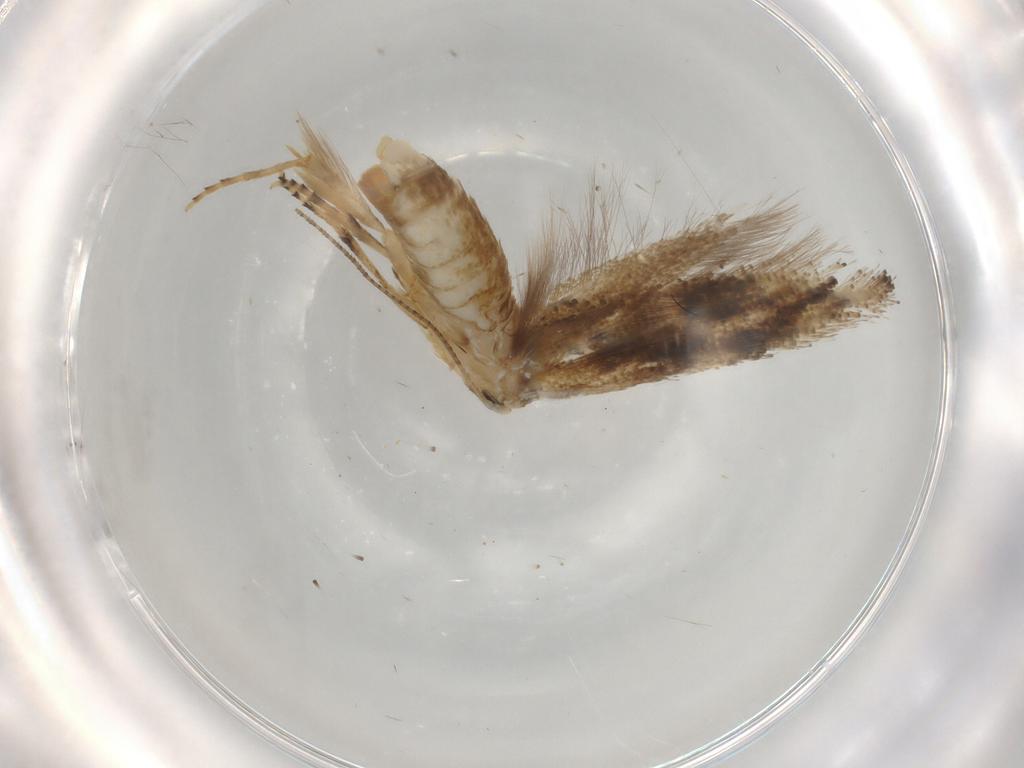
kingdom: Animalia
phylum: Arthropoda
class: Insecta
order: Lepidoptera
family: Bucculatricidae
